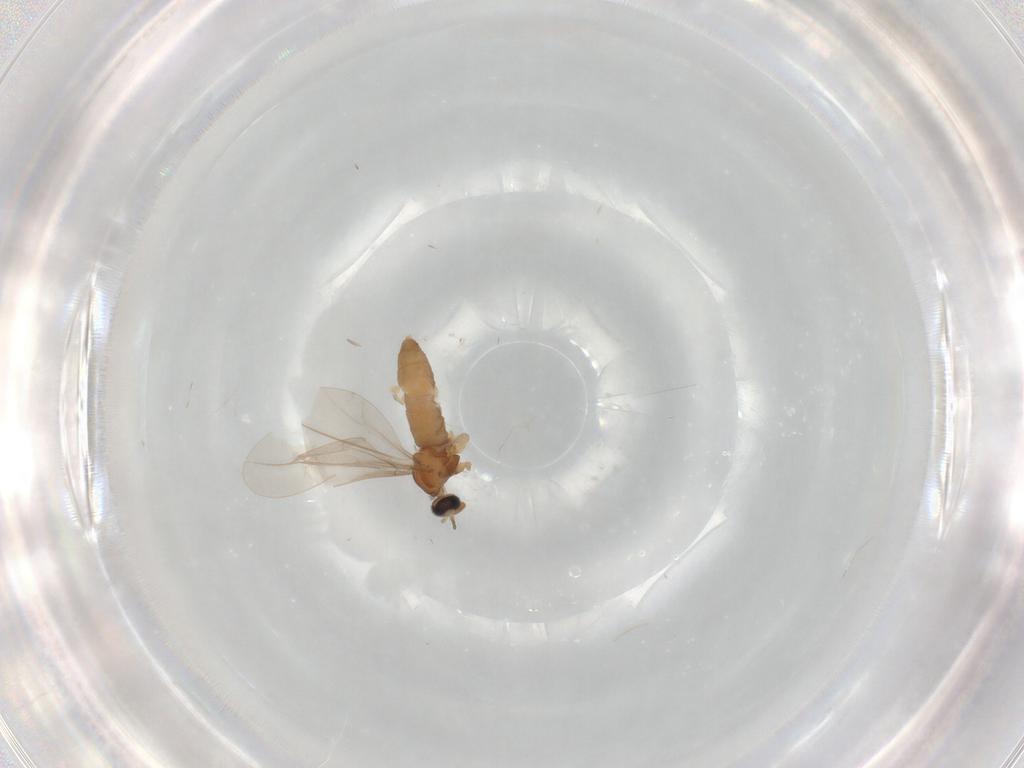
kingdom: Animalia
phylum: Arthropoda
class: Insecta
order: Diptera
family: Cecidomyiidae
